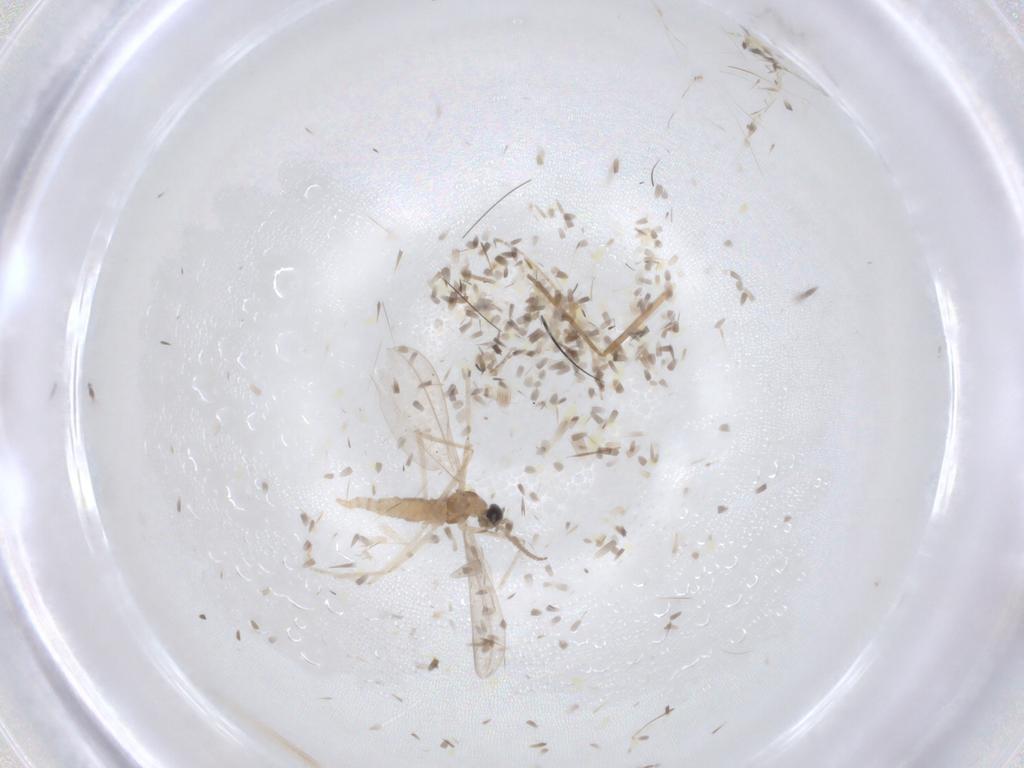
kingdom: Animalia
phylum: Arthropoda
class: Insecta
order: Diptera
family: Cecidomyiidae
